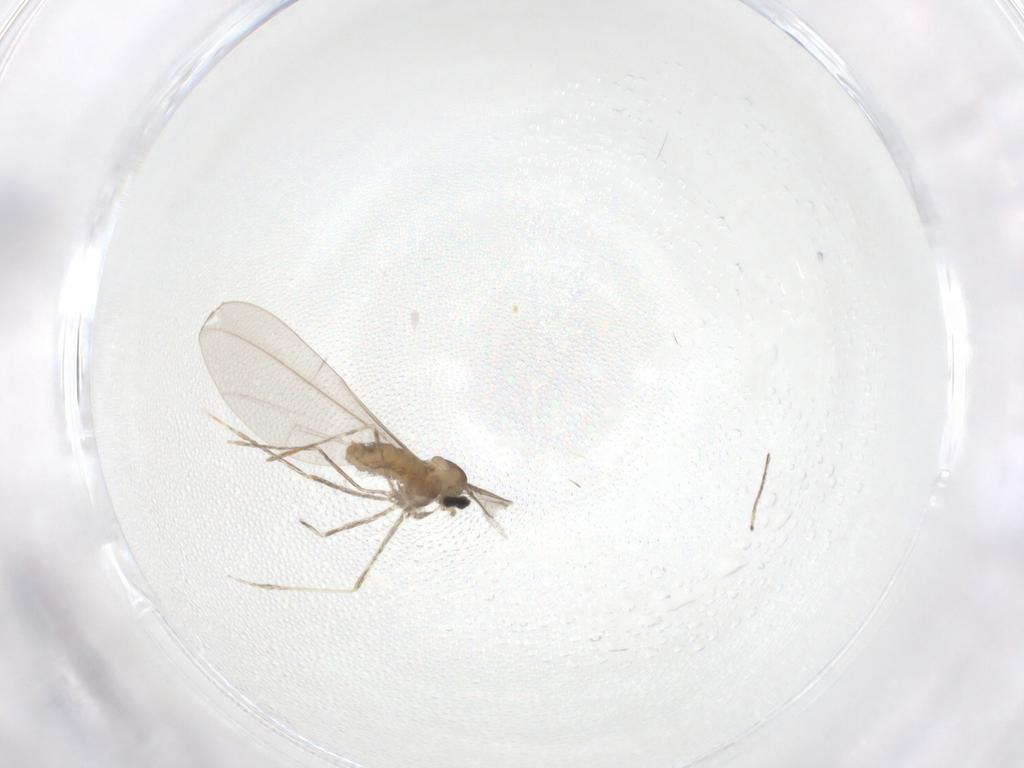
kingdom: Animalia
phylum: Arthropoda
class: Insecta
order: Diptera
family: Cecidomyiidae
